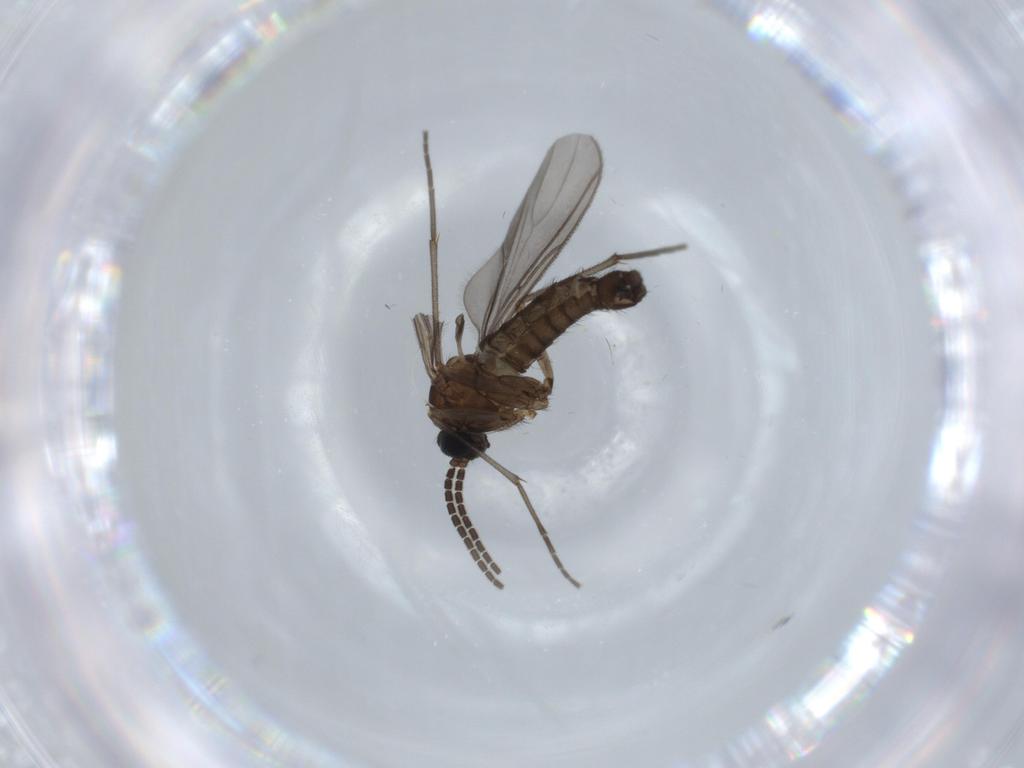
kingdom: Animalia
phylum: Arthropoda
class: Insecta
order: Diptera
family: Sciaridae
